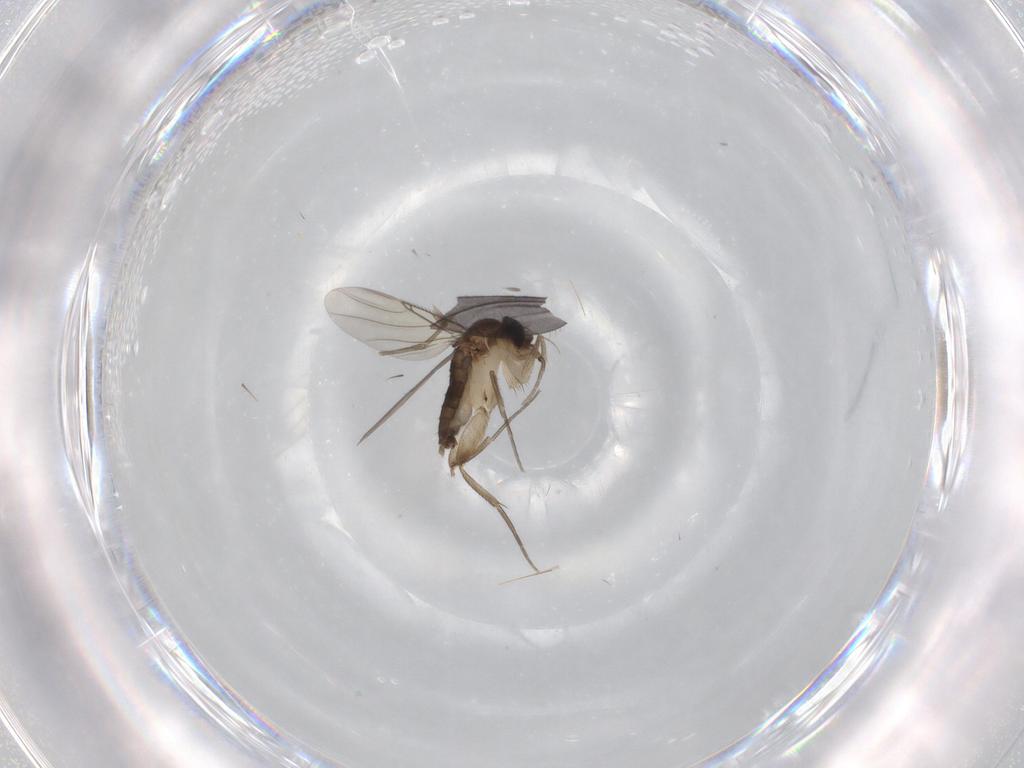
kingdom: Animalia
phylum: Arthropoda
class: Insecta
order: Diptera
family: Phoridae
